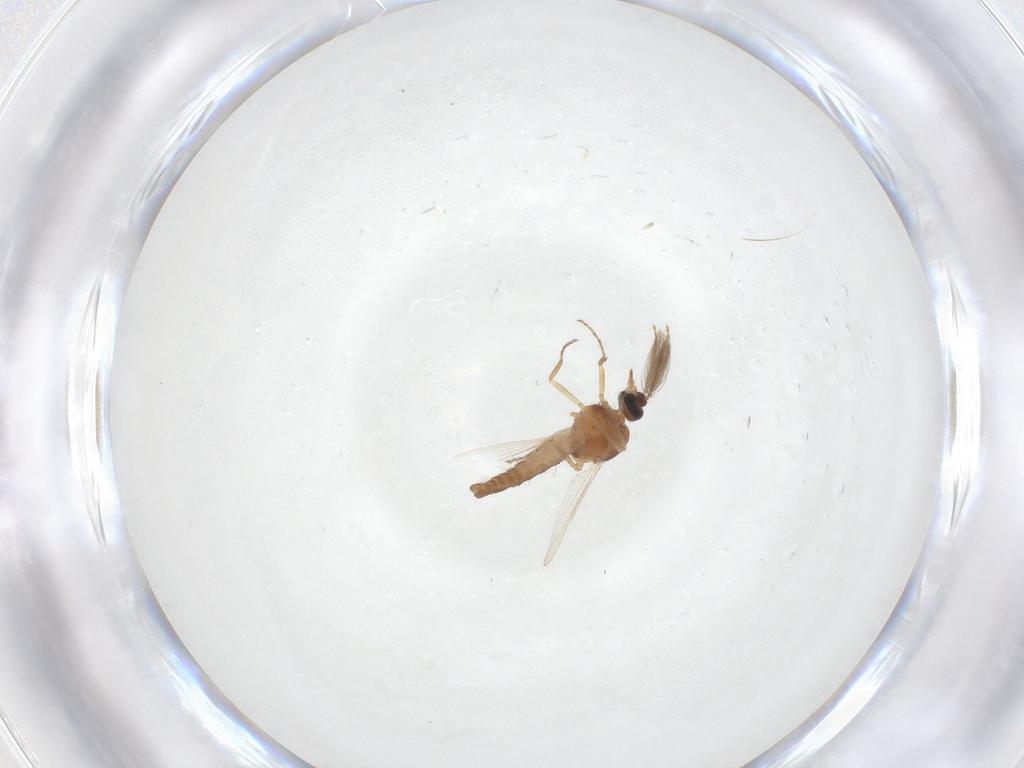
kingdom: Animalia
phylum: Arthropoda
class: Insecta
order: Diptera
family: Ceratopogonidae
